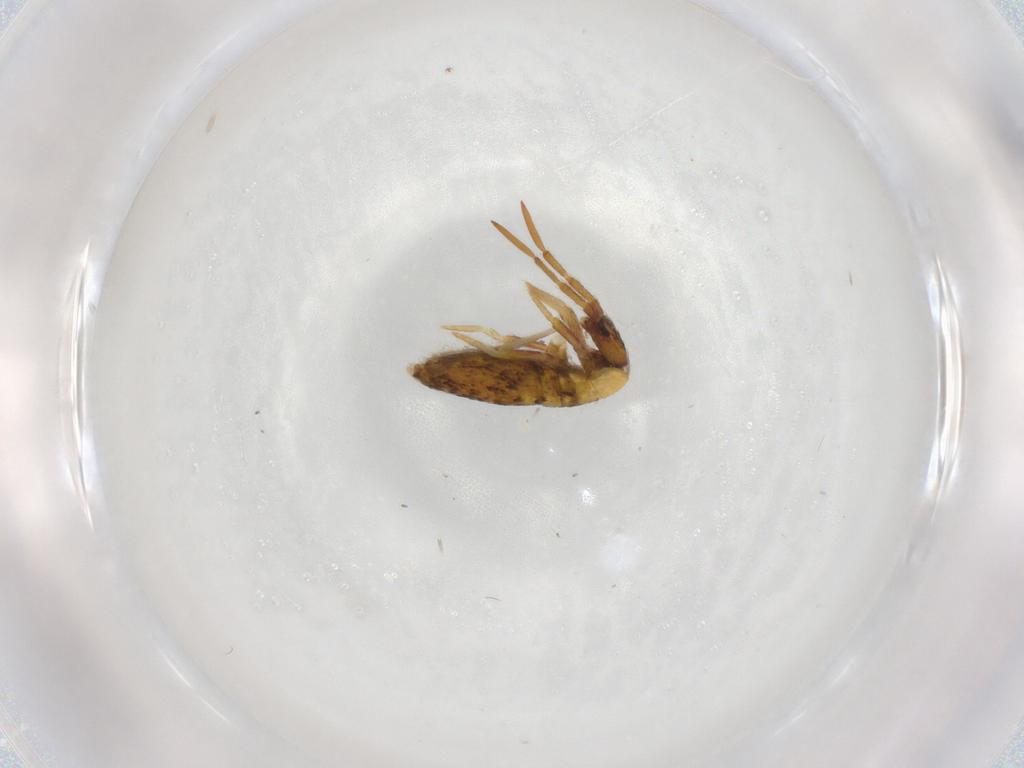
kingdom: Animalia
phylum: Arthropoda
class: Collembola
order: Entomobryomorpha
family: Entomobryidae
